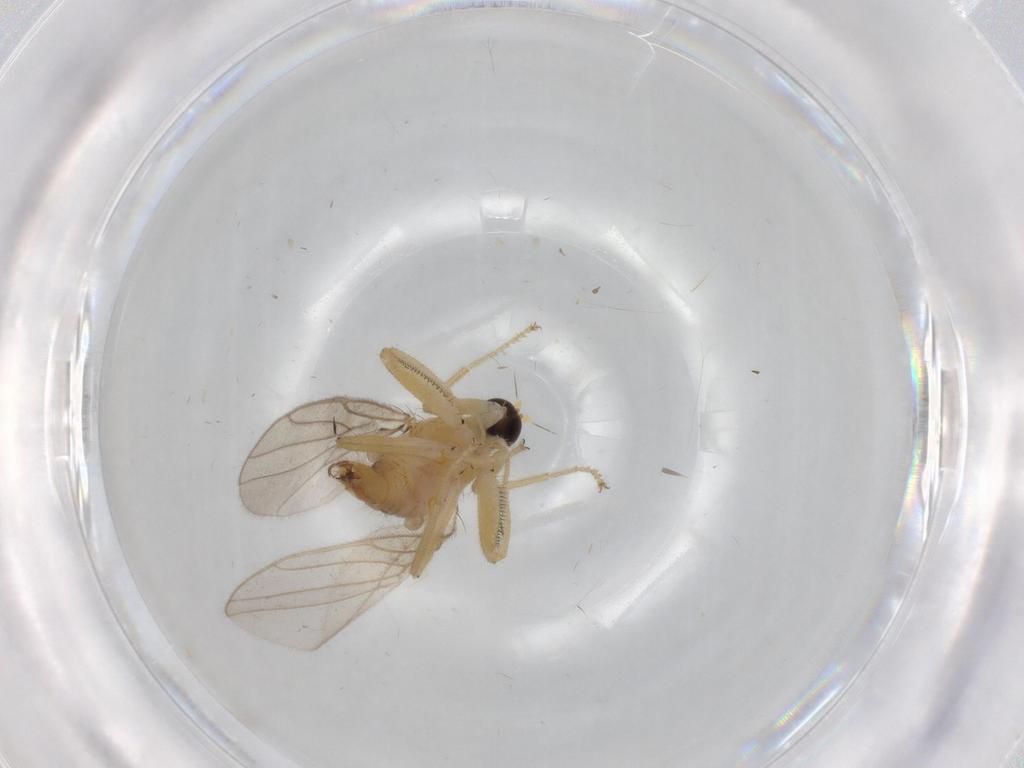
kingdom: Animalia
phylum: Arthropoda
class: Insecta
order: Diptera
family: Hybotidae
